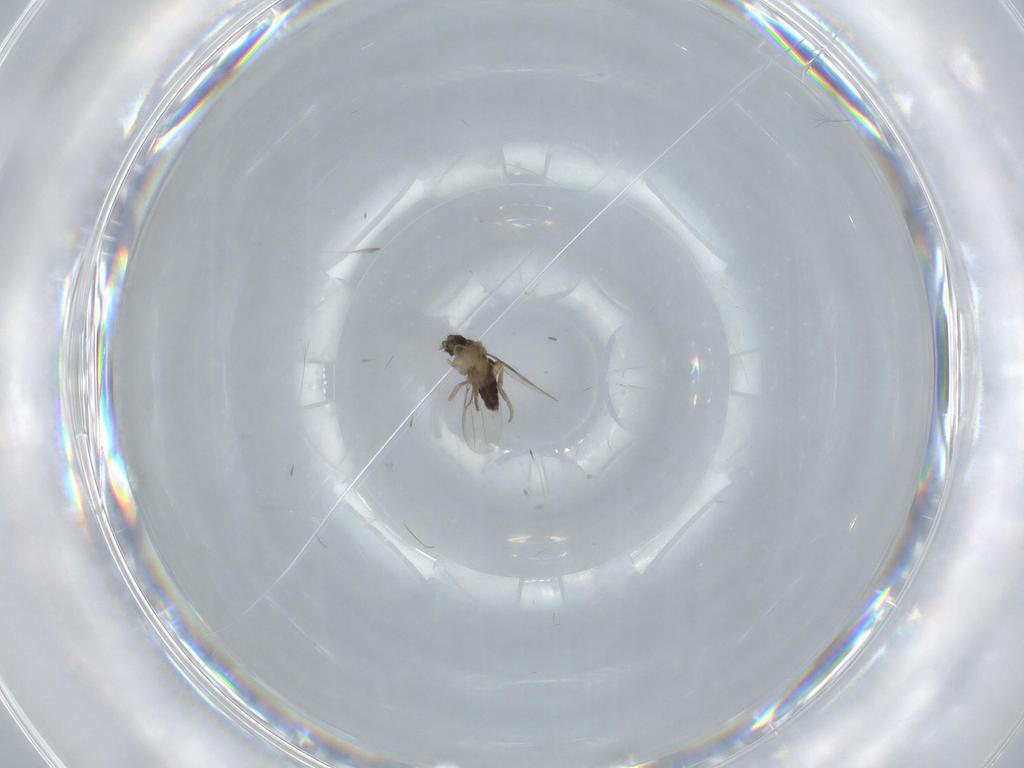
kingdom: Animalia
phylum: Arthropoda
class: Insecta
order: Diptera
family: Phoridae
